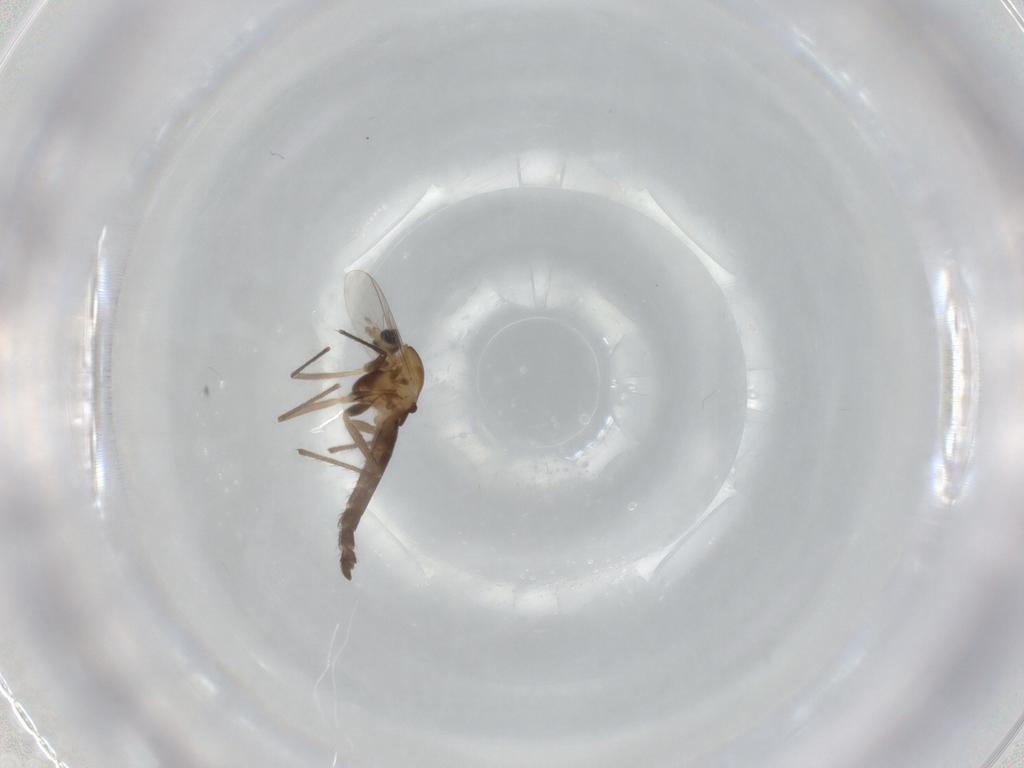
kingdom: Animalia
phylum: Arthropoda
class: Insecta
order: Diptera
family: Chironomidae
